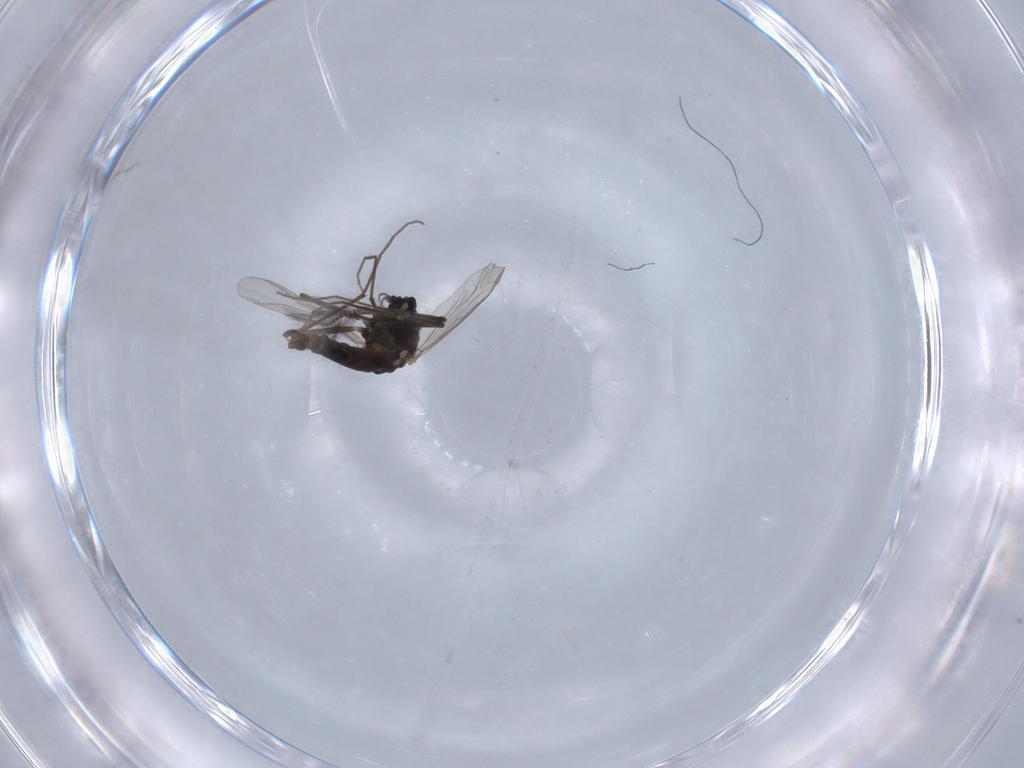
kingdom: Animalia
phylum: Arthropoda
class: Insecta
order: Diptera
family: Chironomidae
